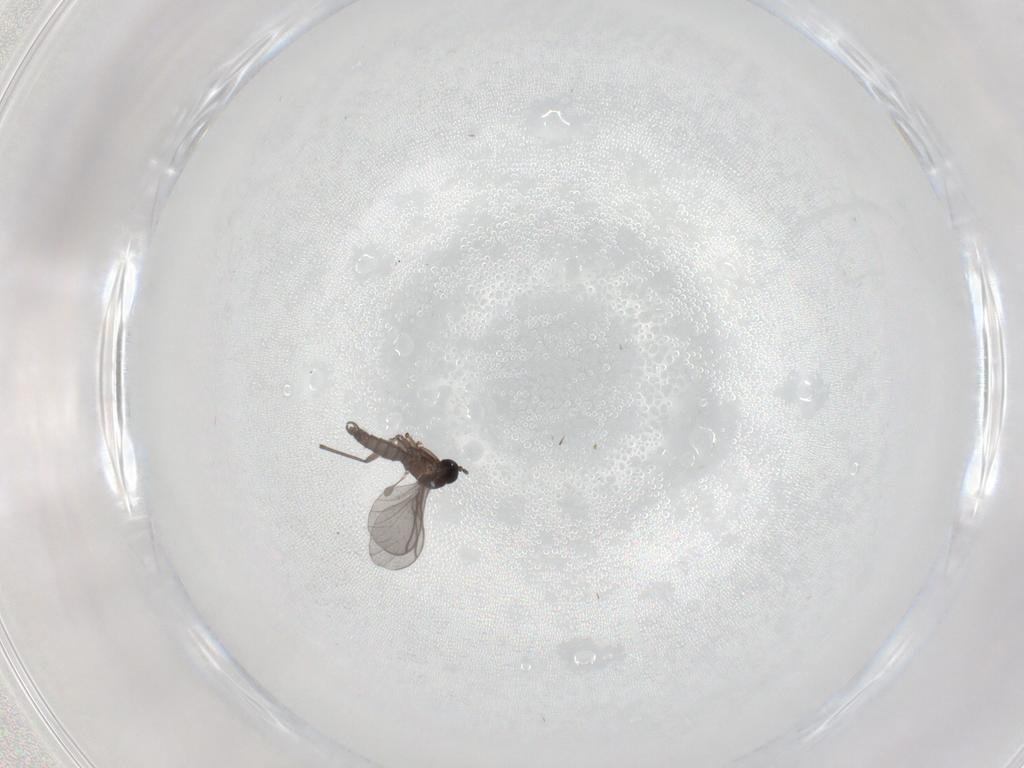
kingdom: Animalia
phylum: Arthropoda
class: Insecta
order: Diptera
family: Sciaridae
